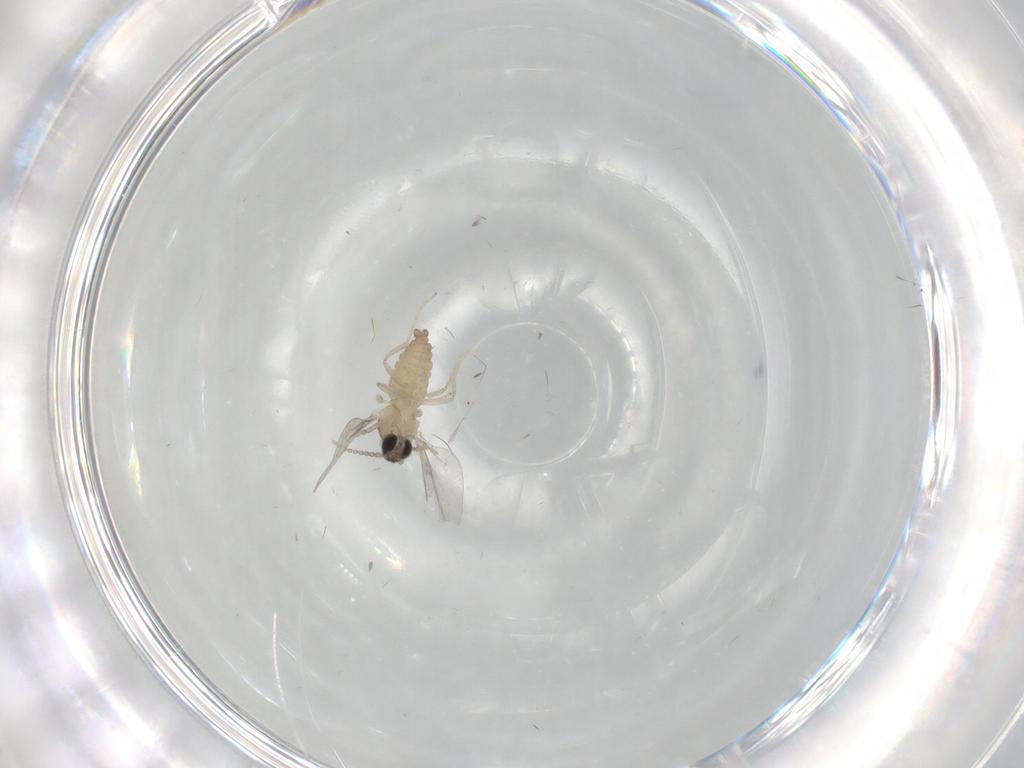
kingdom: Animalia
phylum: Arthropoda
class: Insecta
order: Diptera
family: Cecidomyiidae
